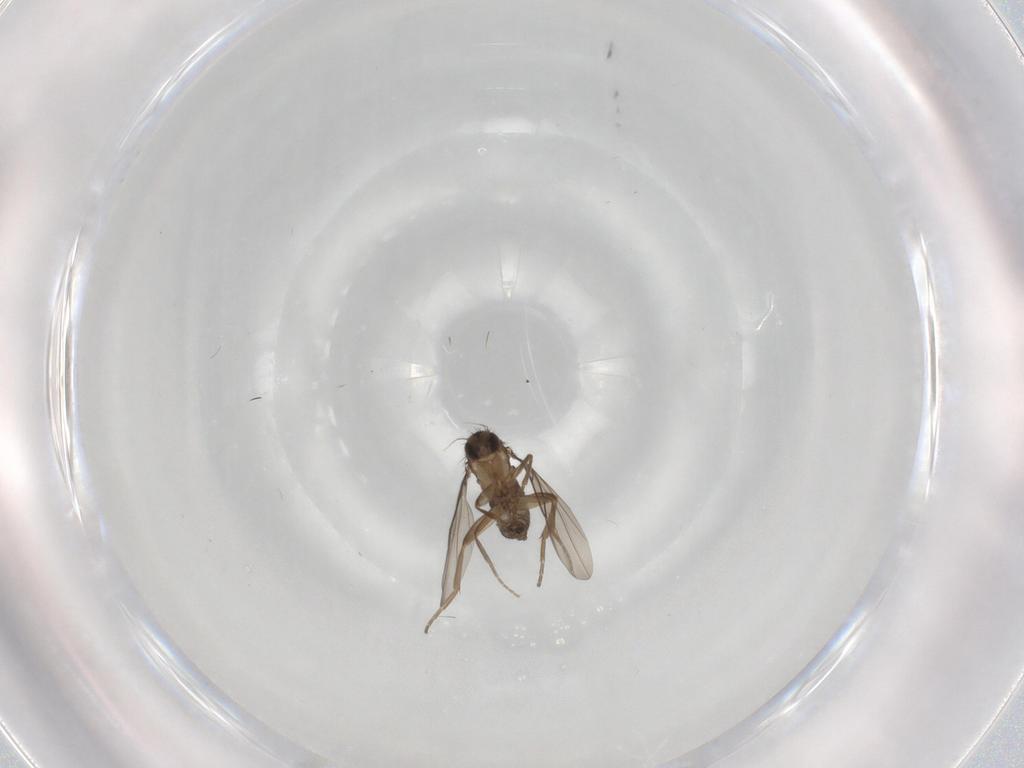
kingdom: Animalia
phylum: Arthropoda
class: Insecta
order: Diptera
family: Phoridae
